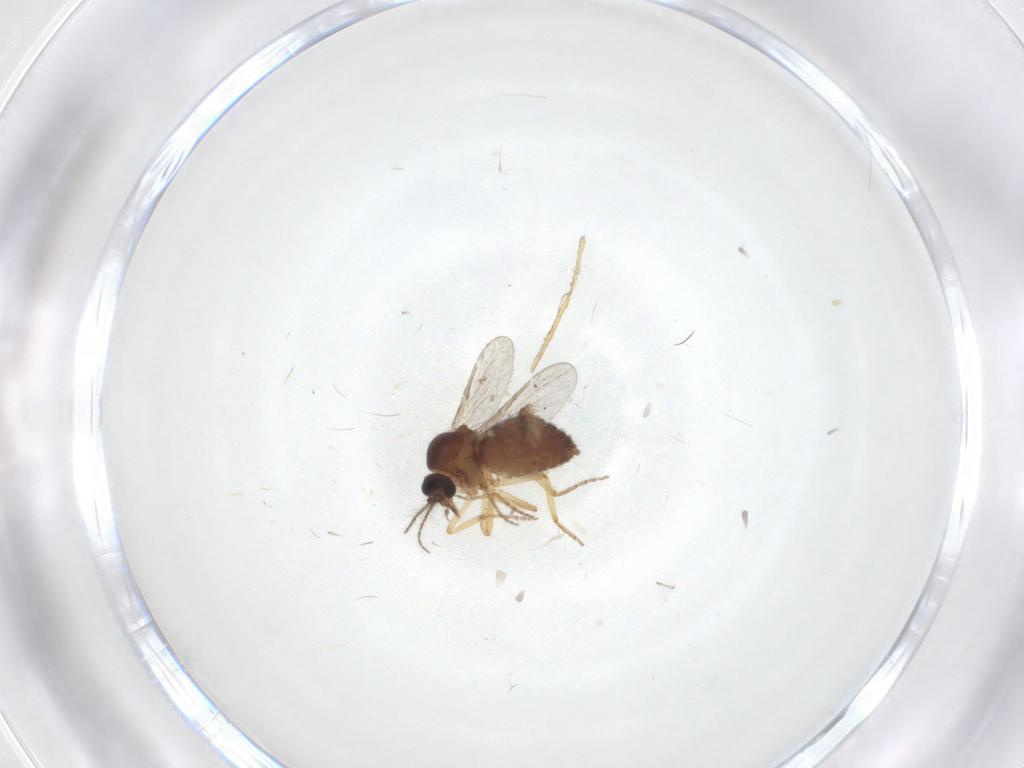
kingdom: Animalia
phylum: Arthropoda
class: Insecta
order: Diptera
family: Ceratopogonidae
